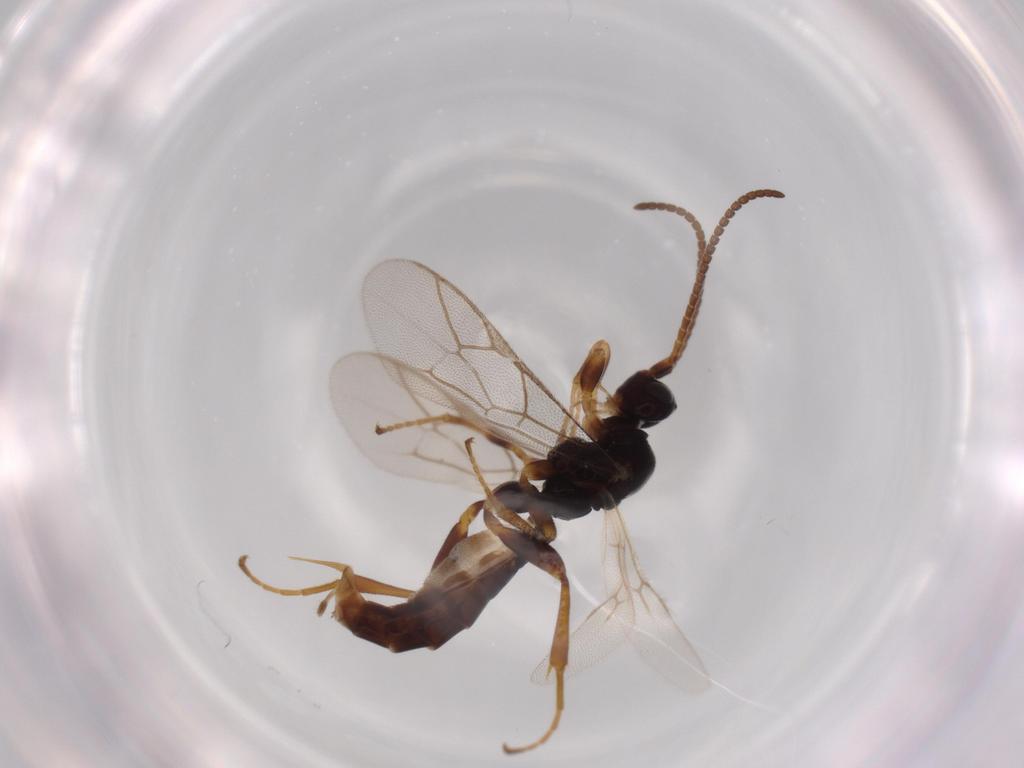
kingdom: Animalia
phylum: Arthropoda
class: Insecta
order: Hymenoptera
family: Ichneumonidae
